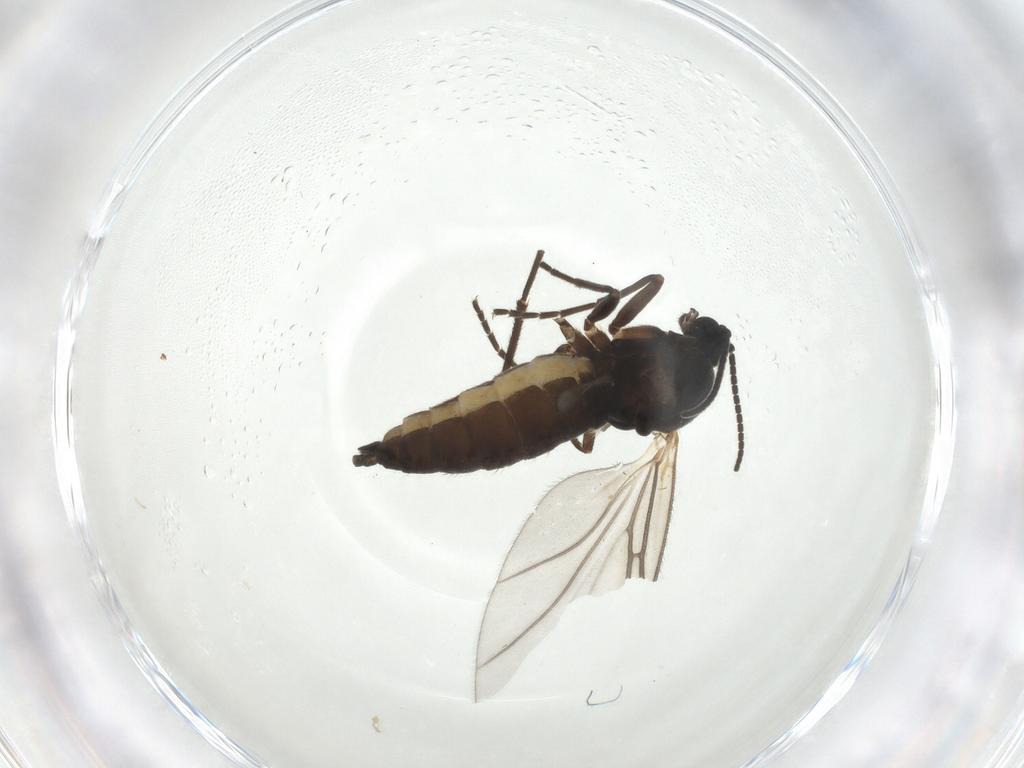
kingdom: Animalia
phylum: Arthropoda
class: Insecta
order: Diptera
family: Sciaridae
